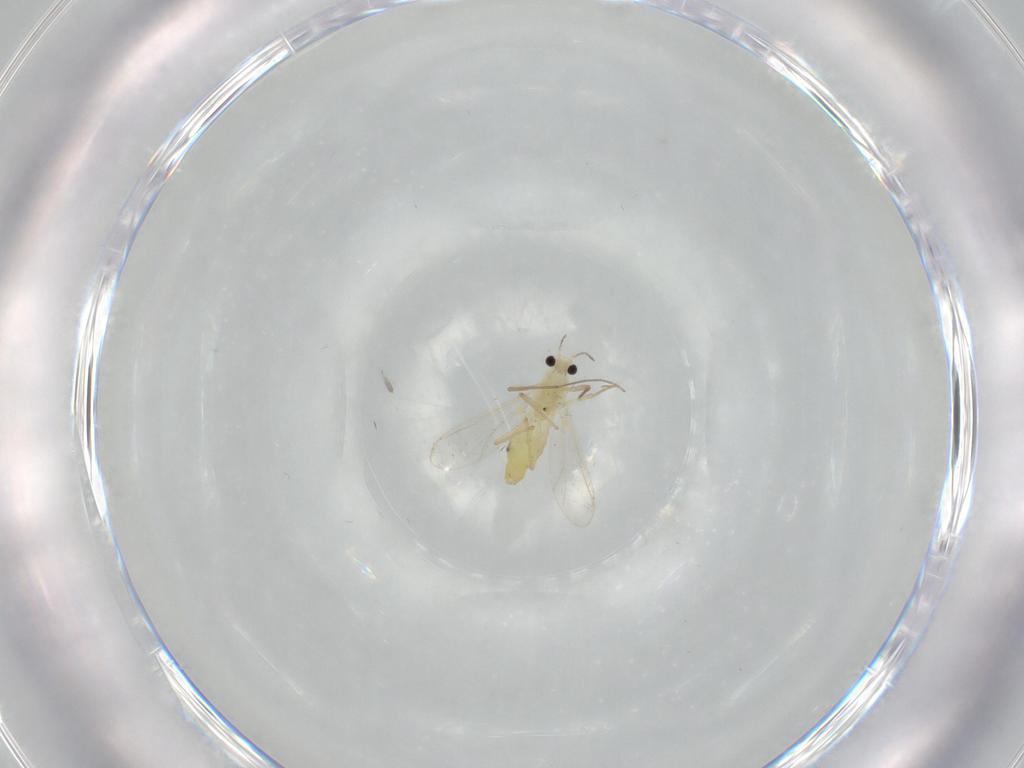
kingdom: Animalia
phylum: Arthropoda
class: Insecta
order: Diptera
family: Chironomidae
